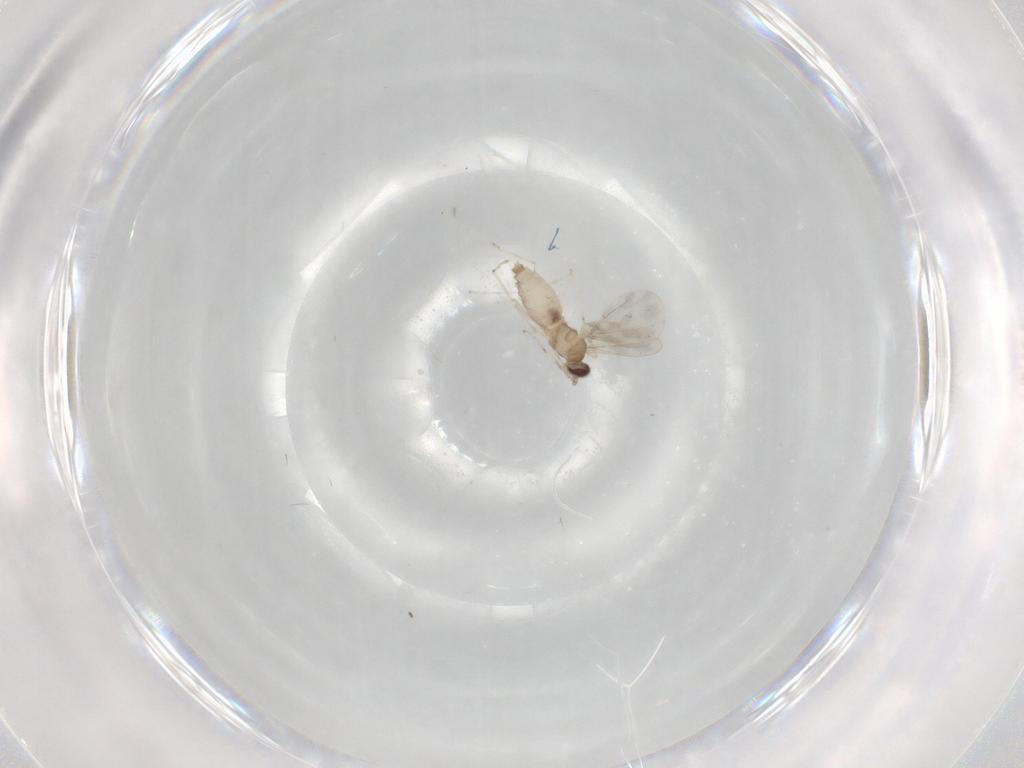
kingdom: Animalia
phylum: Arthropoda
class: Insecta
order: Diptera
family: Cecidomyiidae
